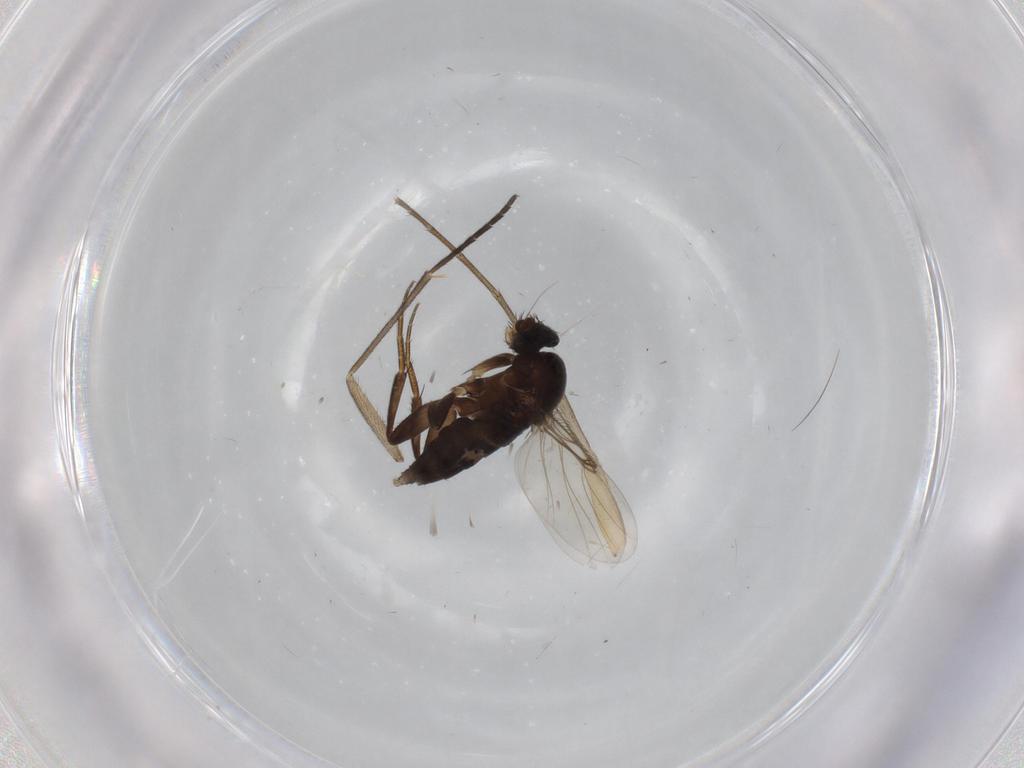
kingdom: Animalia
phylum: Arthropoda
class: Insecta
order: Diptera
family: Phoridae
